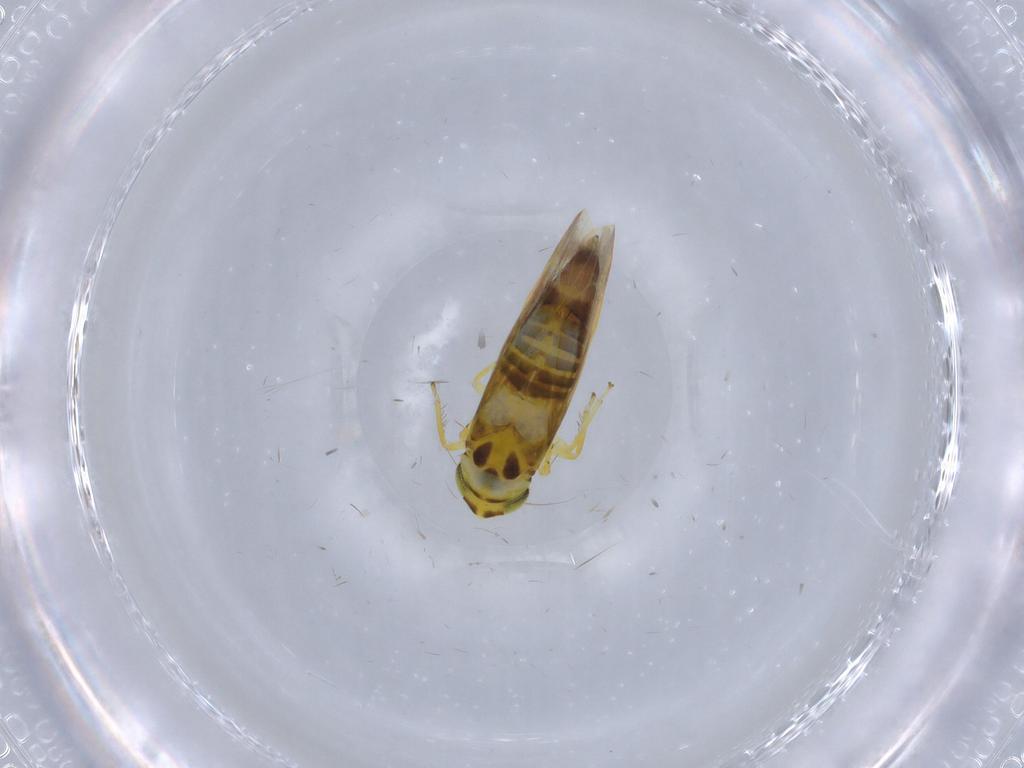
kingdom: Animalia
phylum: Arthropoda
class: Insecta
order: Hemiptera
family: Cicadellidae
